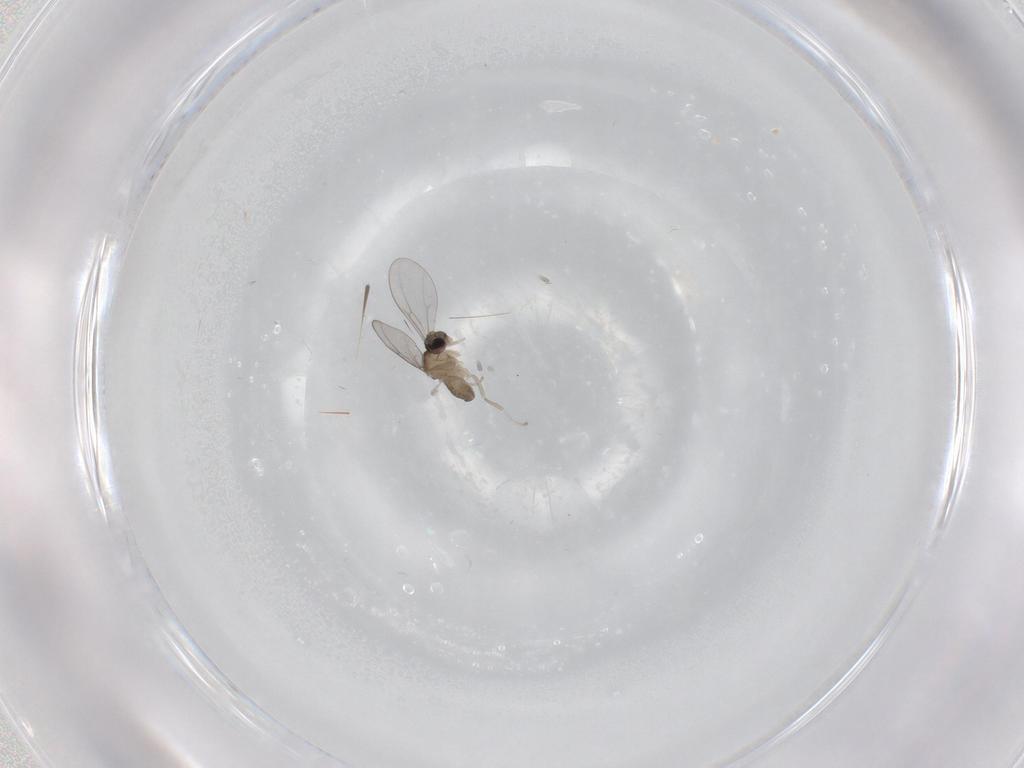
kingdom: Animalia
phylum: Arthropoda
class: Insecta
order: Diptera
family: Cecidomyiidae
